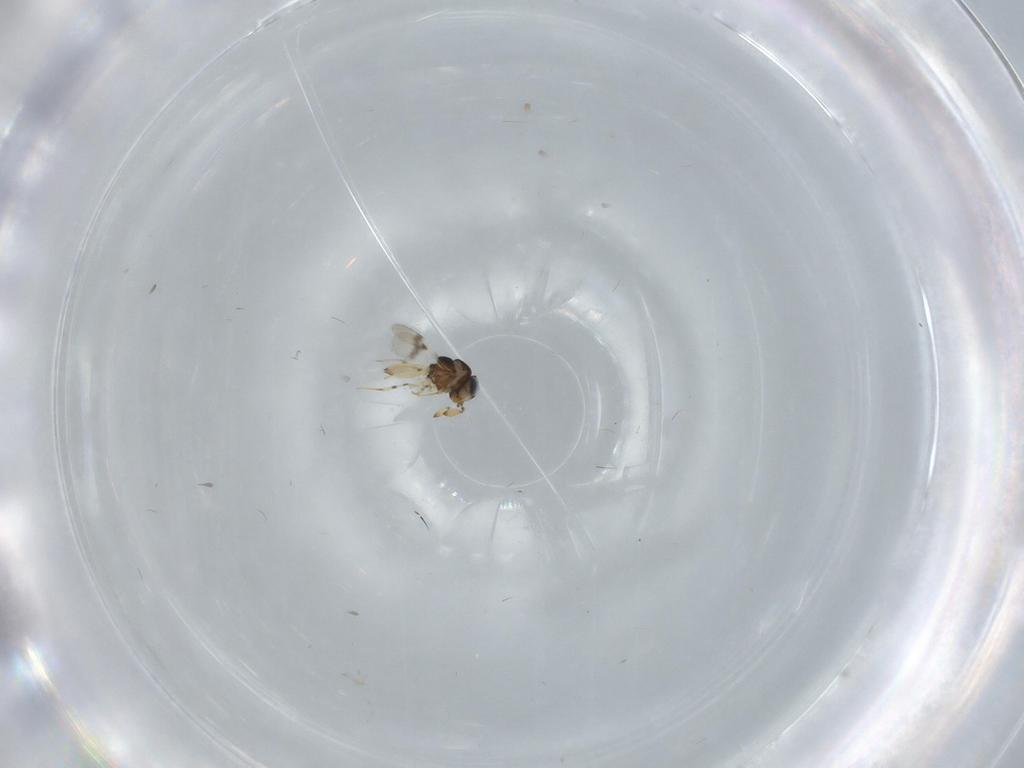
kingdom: Animalia
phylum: Arthropoda
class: Insecta
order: Hymenoptera
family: Scelionidae
